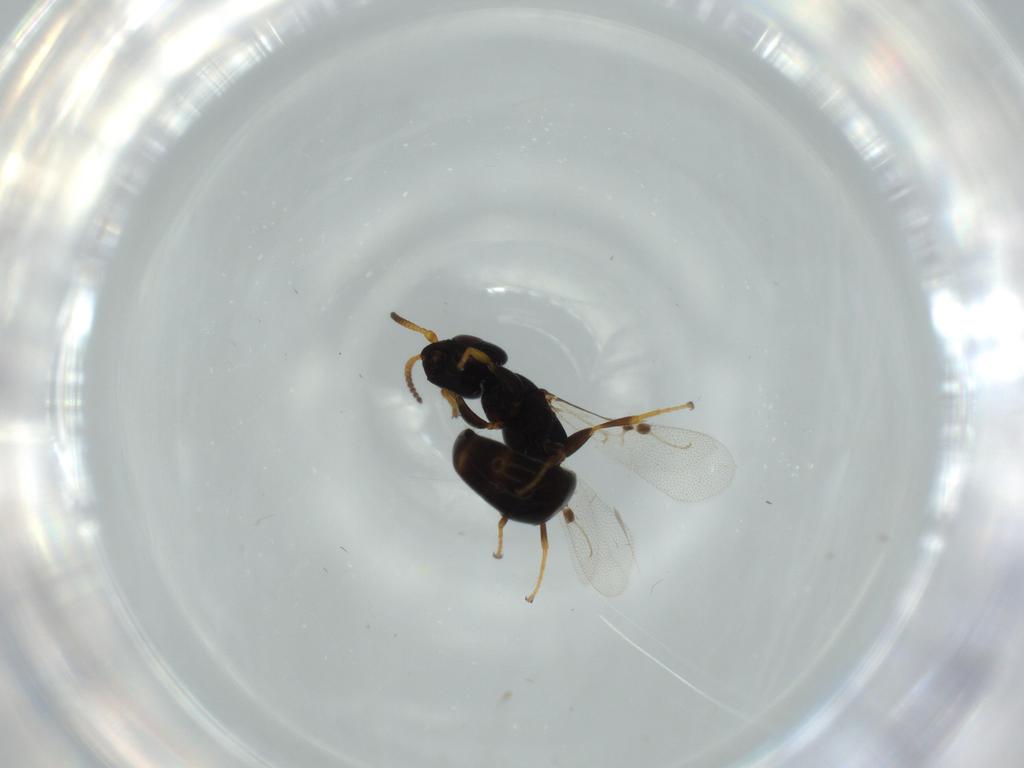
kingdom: Animalia
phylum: Arthropoda
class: Insecta
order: Hymenoptera
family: Bethylidae
